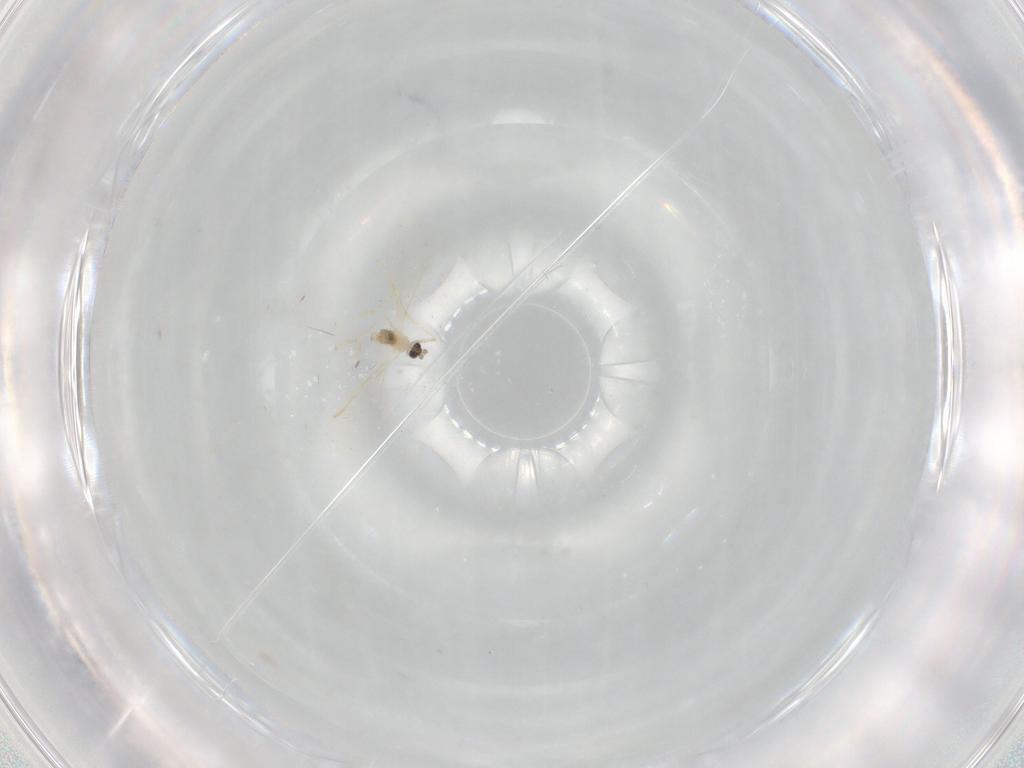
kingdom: Animalia
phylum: Arthropoda
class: Insecta
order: Diptera
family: Cecidomyiidae
